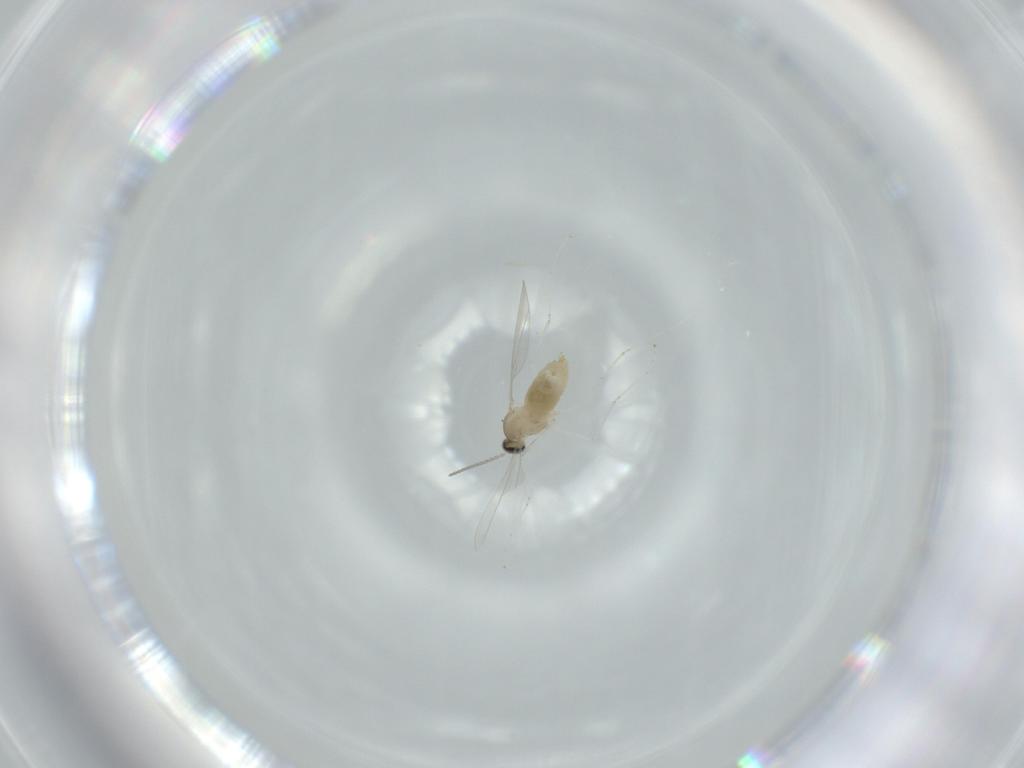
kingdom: Animalia
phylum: Arthropoda
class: Insecta
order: Diptera
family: Cecidomyiidae
